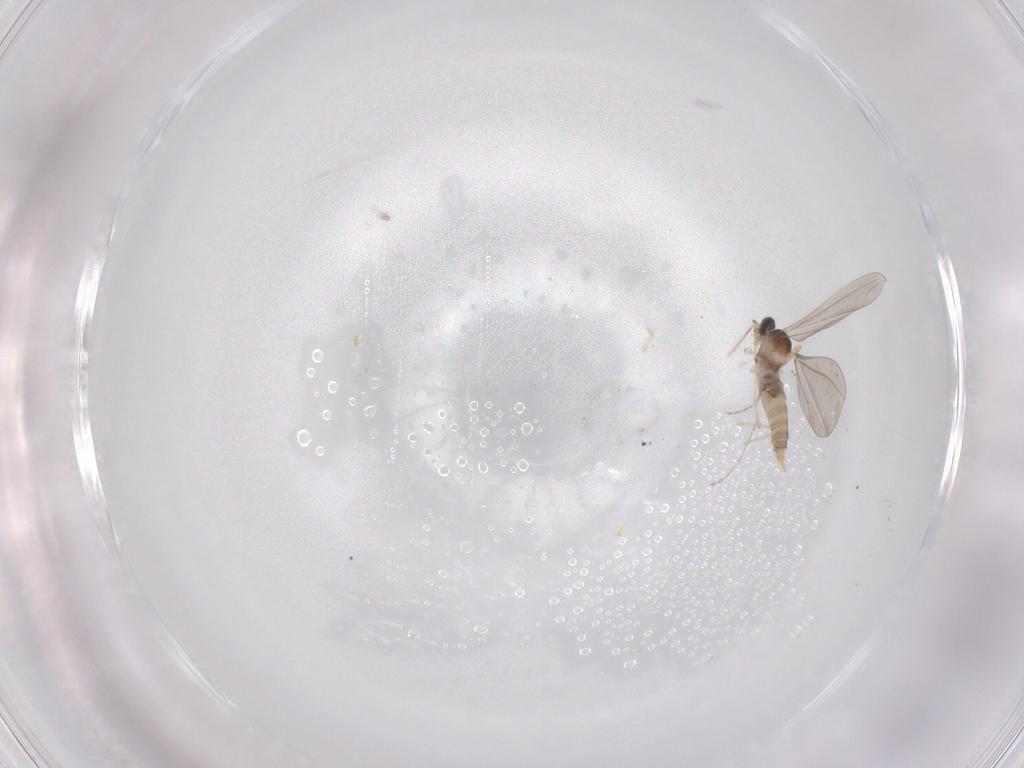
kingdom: Animalia
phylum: Arthropoda
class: Insecta
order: Diptera
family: Cecidomyiidae
